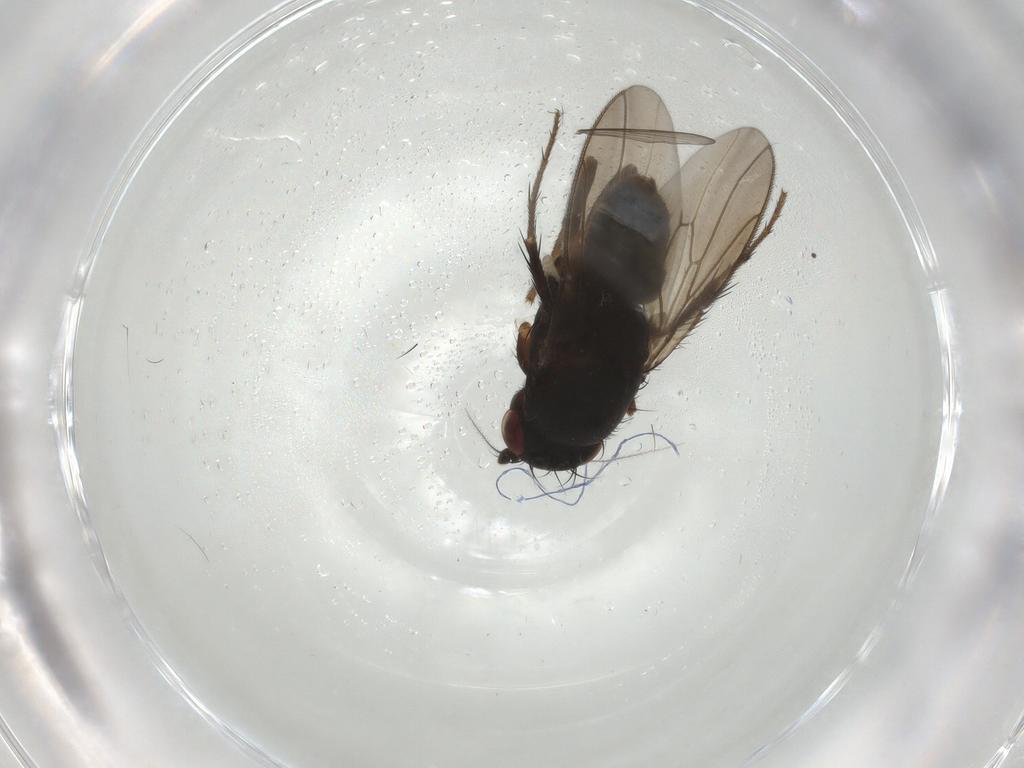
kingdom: Animalia
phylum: Arthropoda
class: Insecta
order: Diptera
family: Sphaeroceridae
